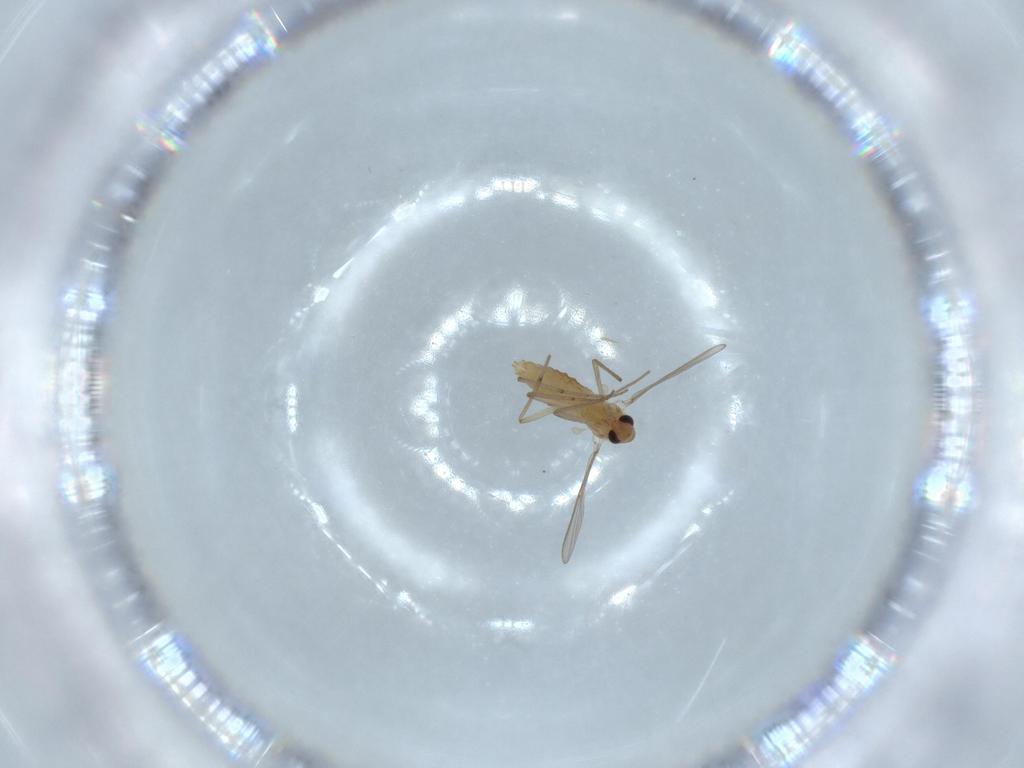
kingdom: Animalia
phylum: Arthropoda
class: Insecta
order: Diptera
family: Chironomidae
